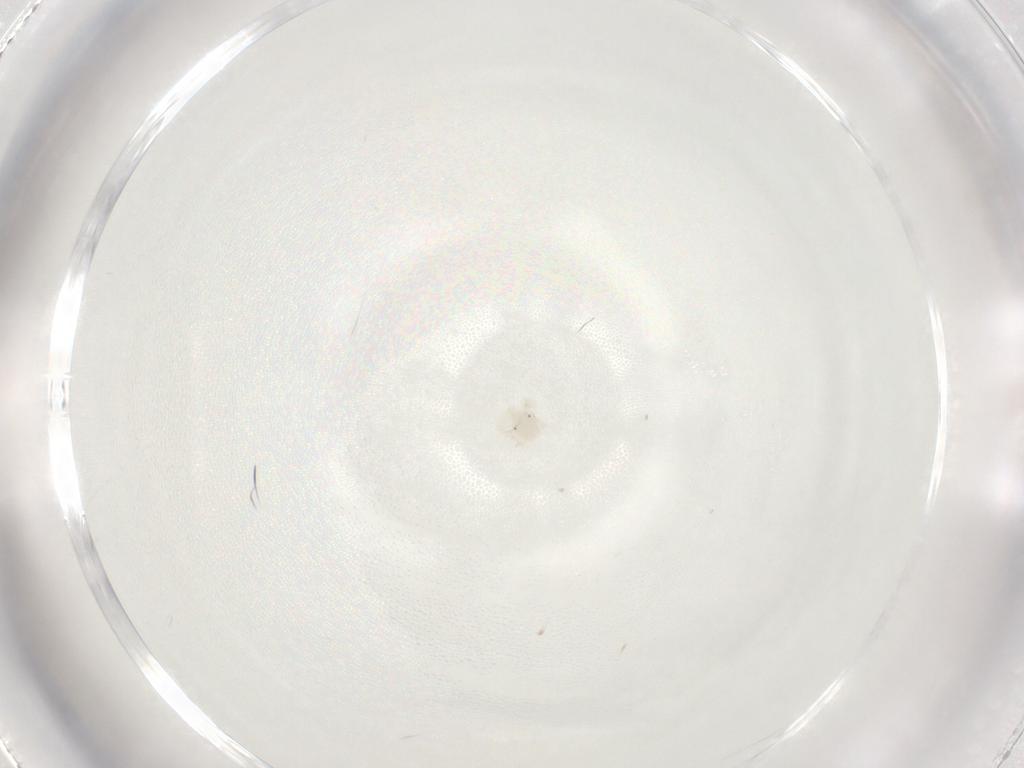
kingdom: Animalia
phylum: Arthropoda
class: Arachnida
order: Trombidiformes
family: Anystidae
